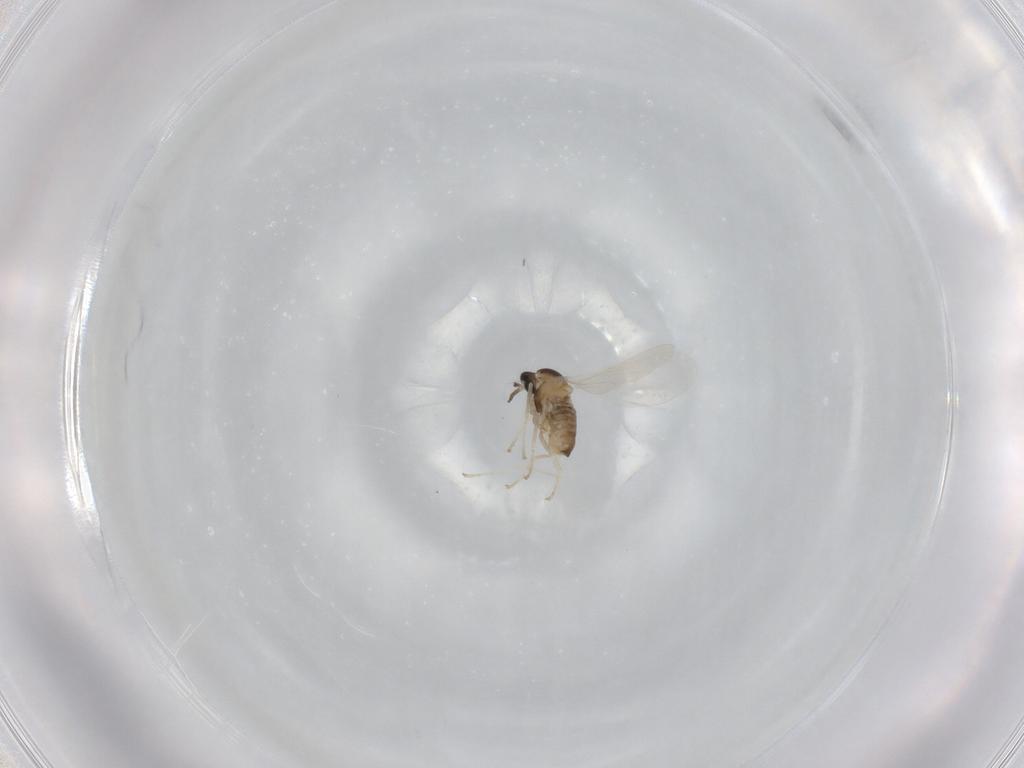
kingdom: Animalia
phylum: Arthropoda
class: Insecta
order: Diptera
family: Cecidomyiidae
